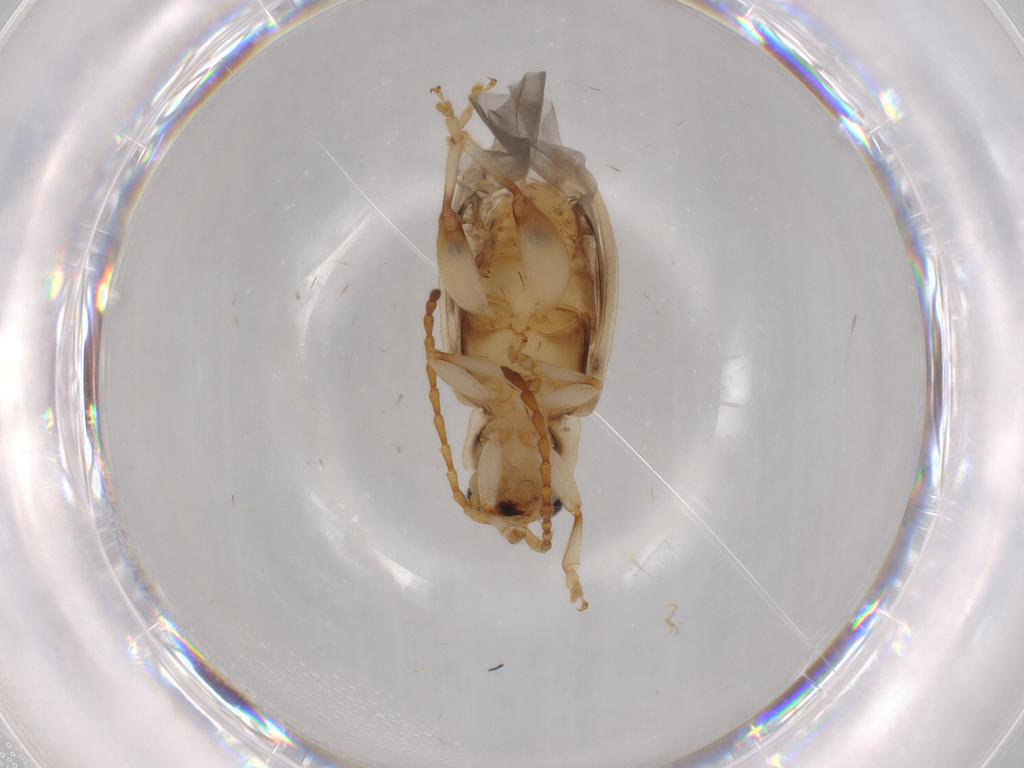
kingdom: Animalia
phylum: Arthropoda
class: Insecta
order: Coleoptera
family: Chrysomelidae
